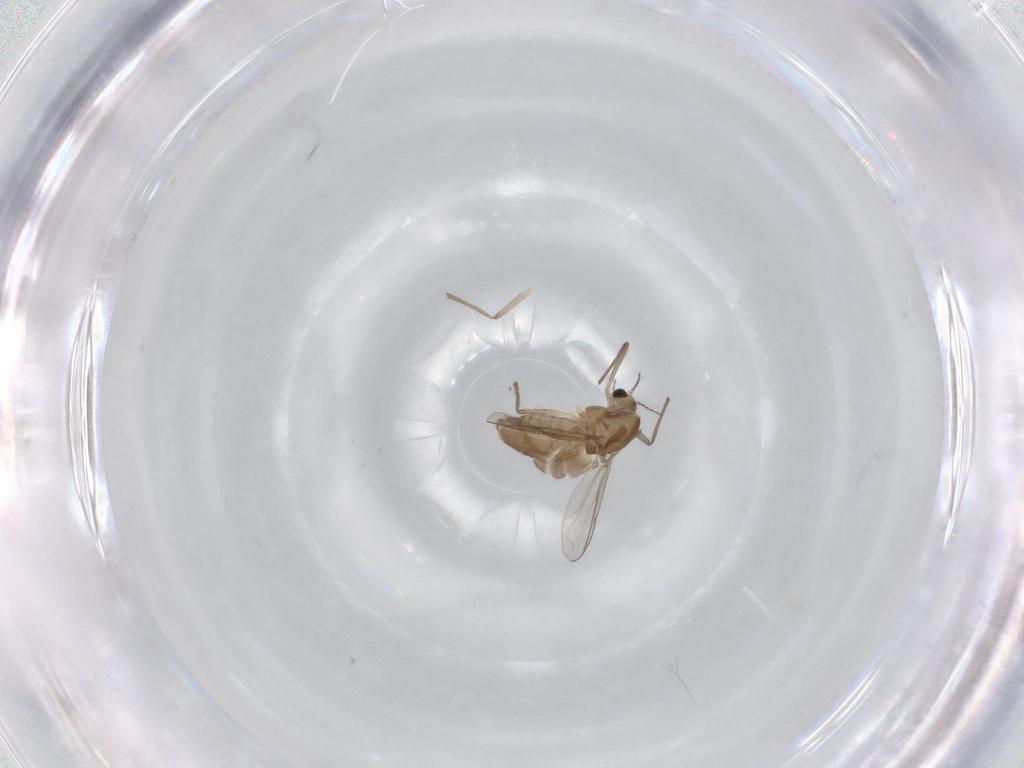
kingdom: Animalia
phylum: Arthropoda
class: Insecta
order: Diptera
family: Chironomidae
